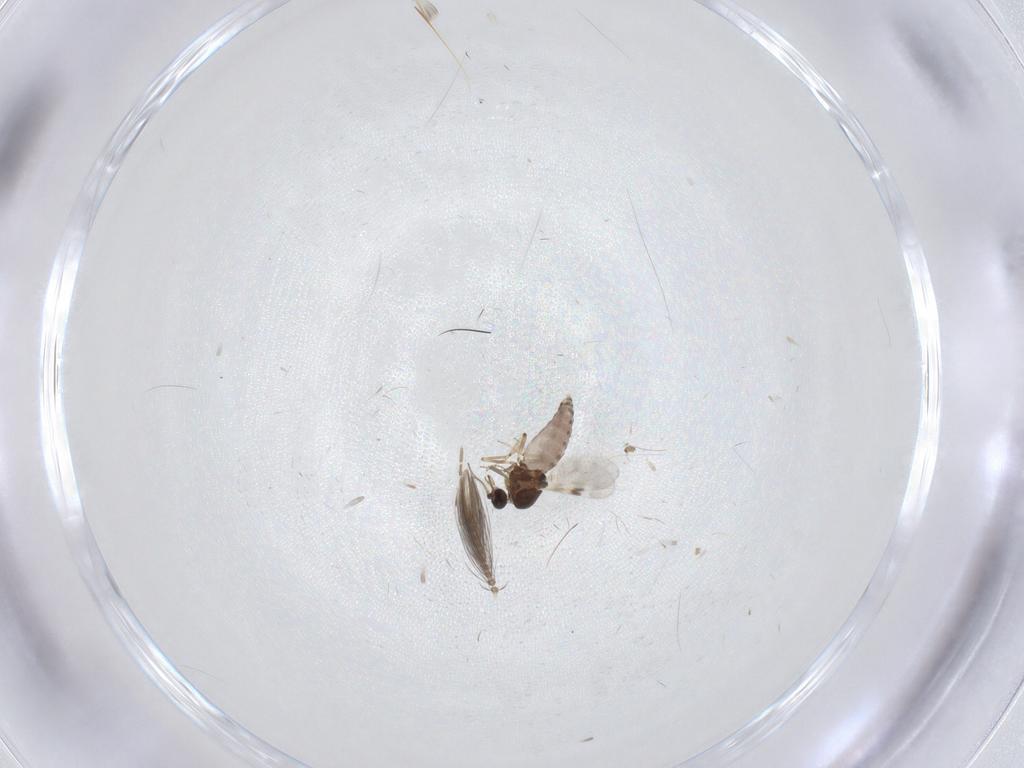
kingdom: Animalia
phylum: Arthropoda
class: Insecta
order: Diptera
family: Ceratopogonidae
